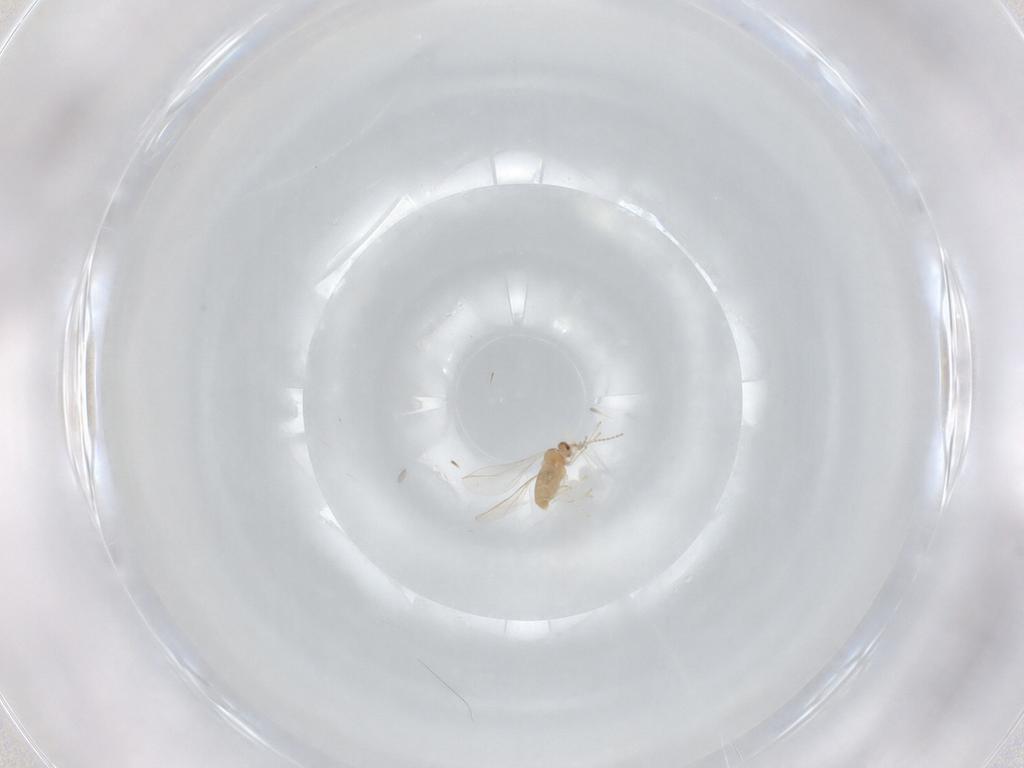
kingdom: Animalia
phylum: Arthropoda
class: Insecta
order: Diptera
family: Cecidomyiidae
